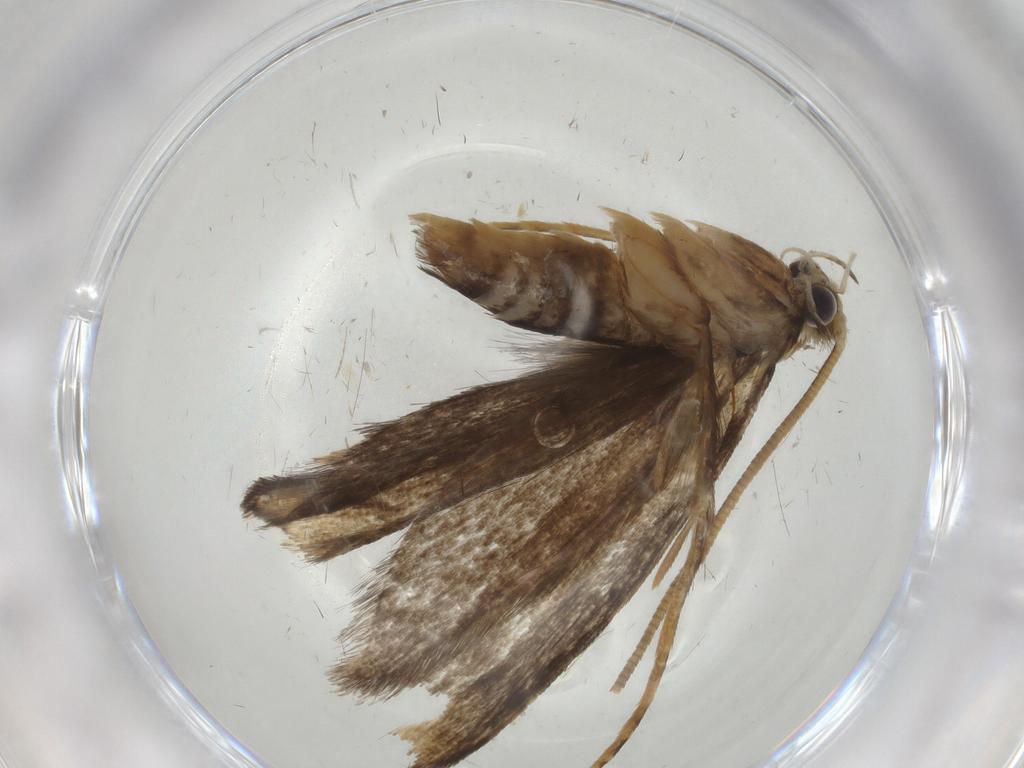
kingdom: Animalia
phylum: Arthropoda
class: Insecta
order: Lepidoptera
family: Tineidae
